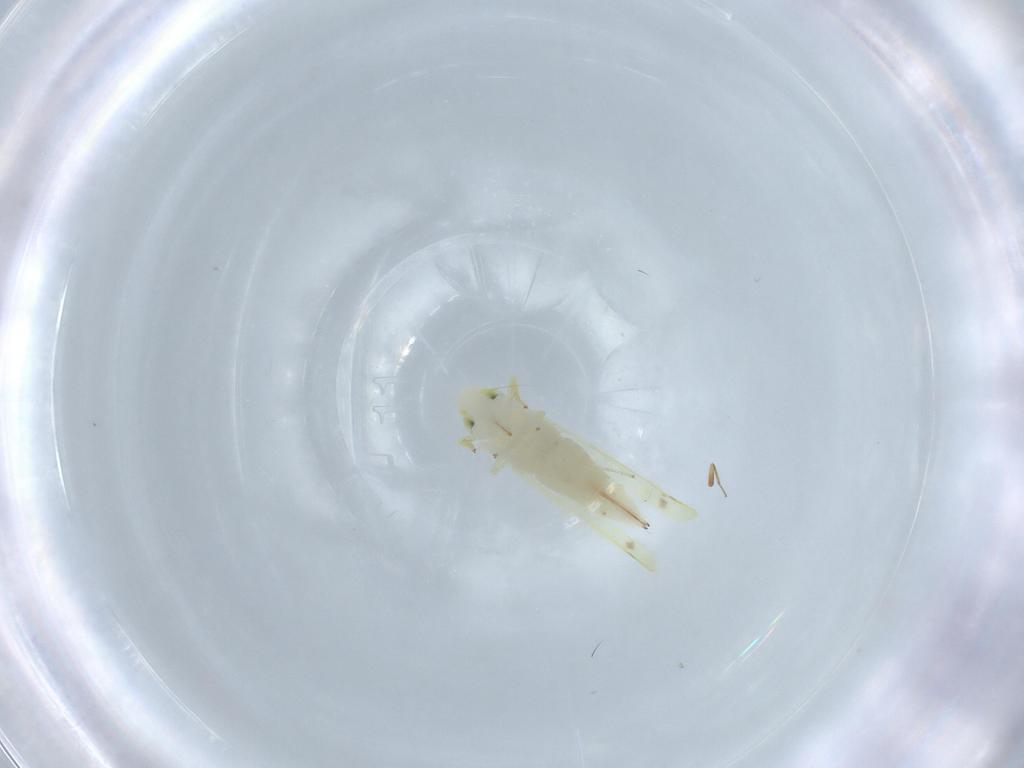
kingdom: Animalia
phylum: Arthropoda
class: Insecta
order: Hemiptera
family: Cicadellidae
